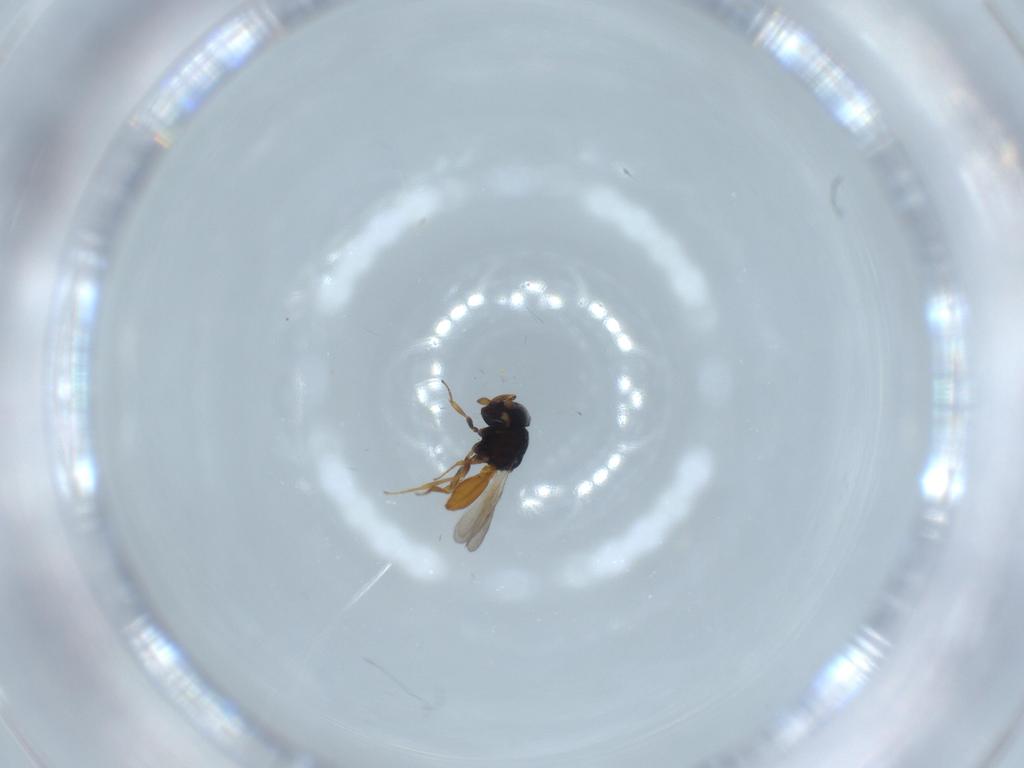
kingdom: Animalia
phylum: Arthropoda
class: Insecta
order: Hymenoptera
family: Scelionidae
